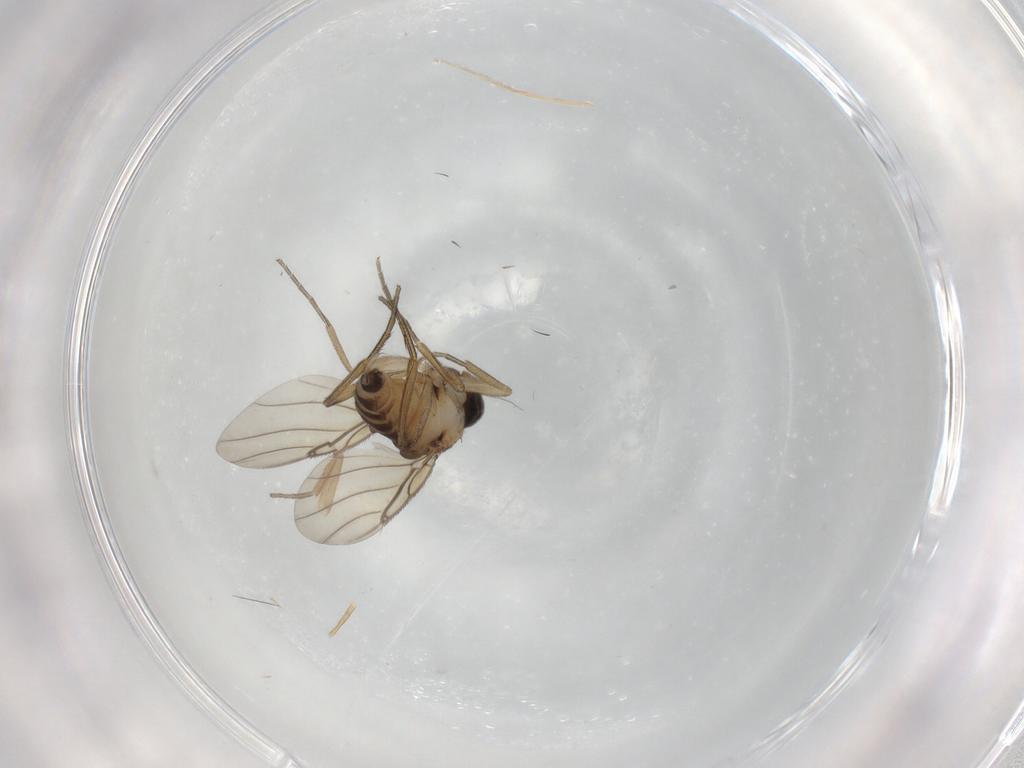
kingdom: Animalia
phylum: Arthropoda
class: Insecta
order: Diptera
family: Phoridae
